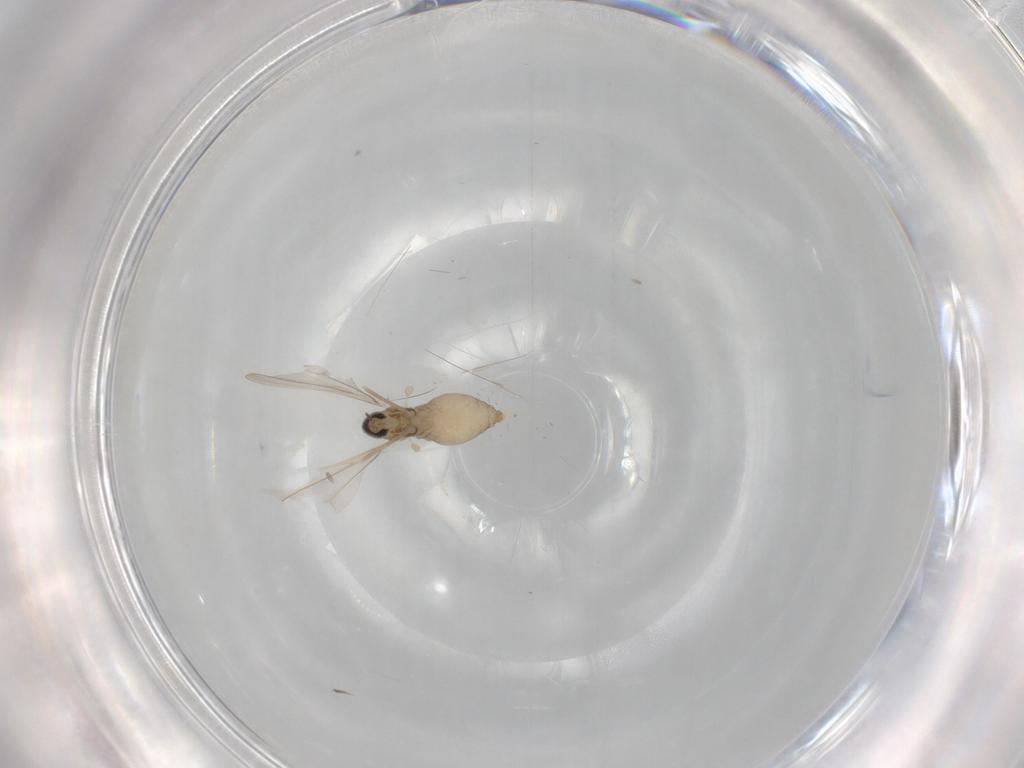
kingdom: Animalia
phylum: Arthropoda
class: Insecta
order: Diptera
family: Cecidomyiidae
